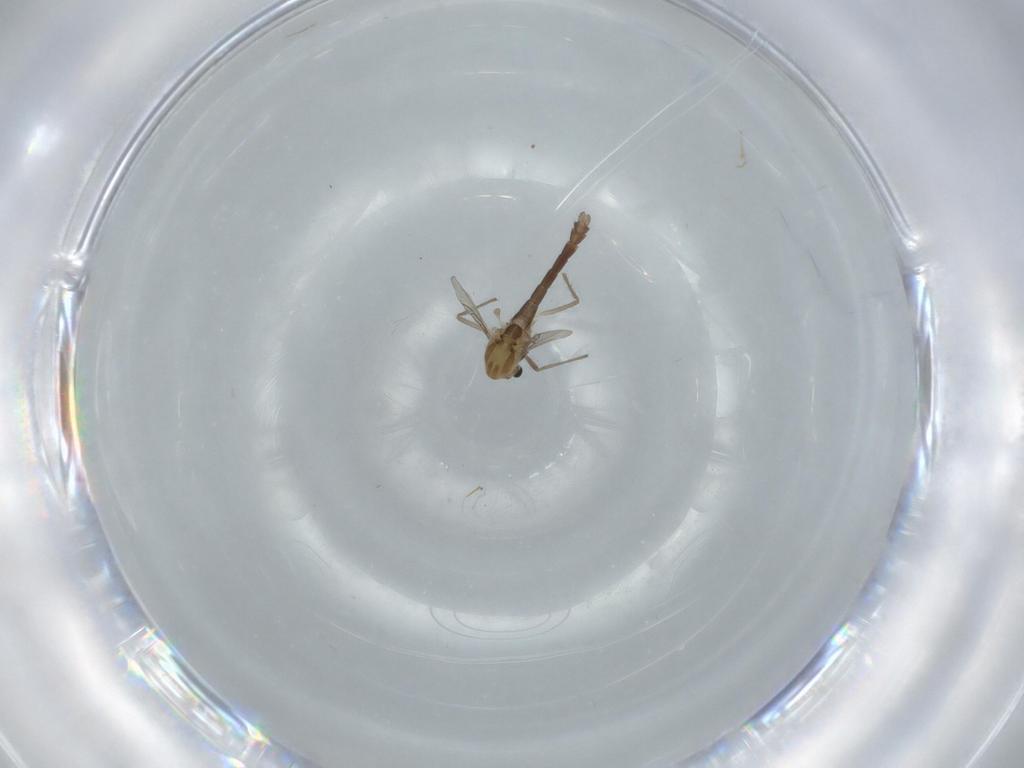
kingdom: Animalia
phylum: Arthropoda
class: Insecta
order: Diptera
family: Chironomidae
